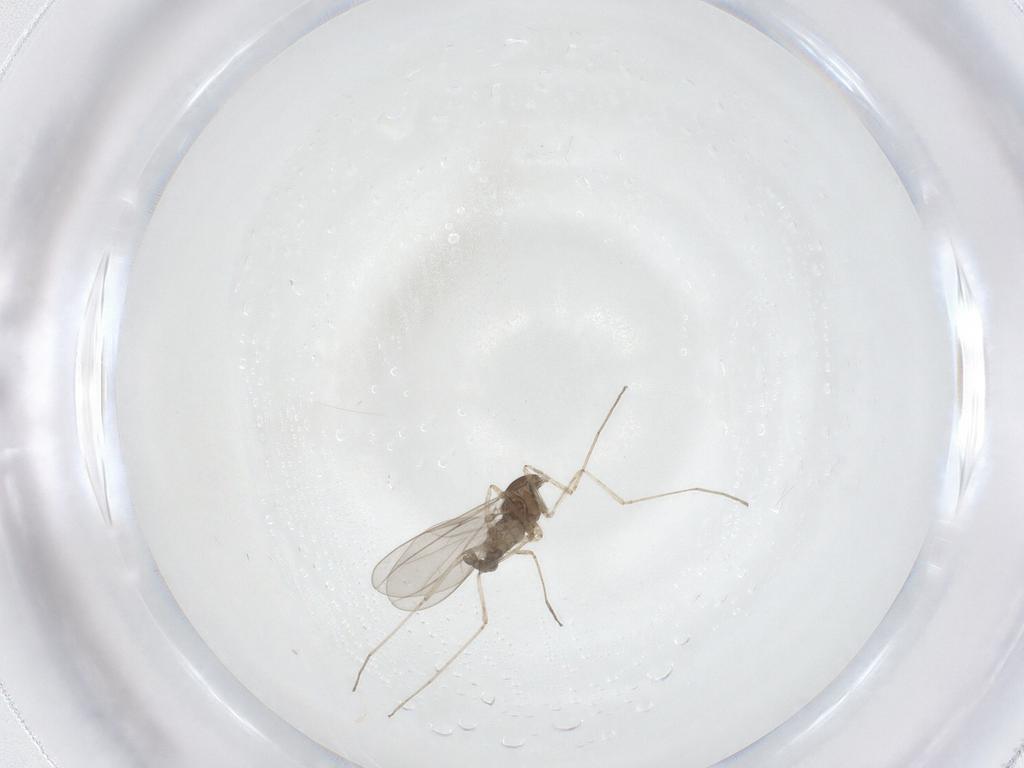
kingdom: Animalia
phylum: Arthropoda
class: Insecta
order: Diptera
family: Cecidomyiidae
